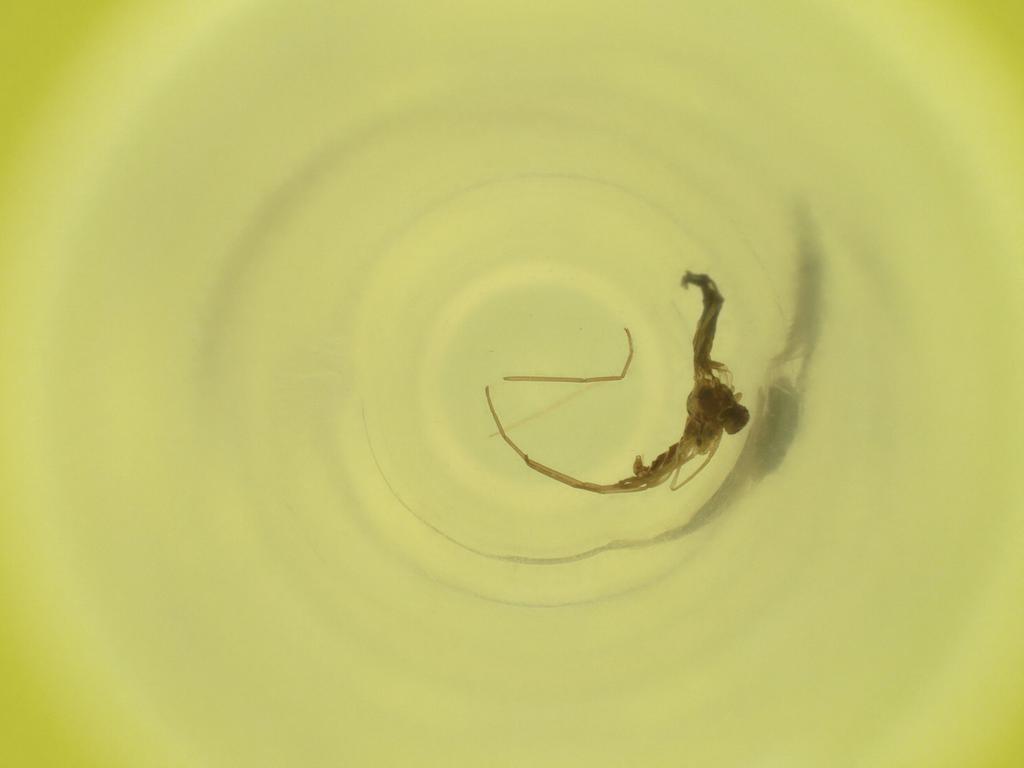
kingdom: Animalia
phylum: Arthropoda
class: Insecta
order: Diptera
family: Cecidomyiidae
